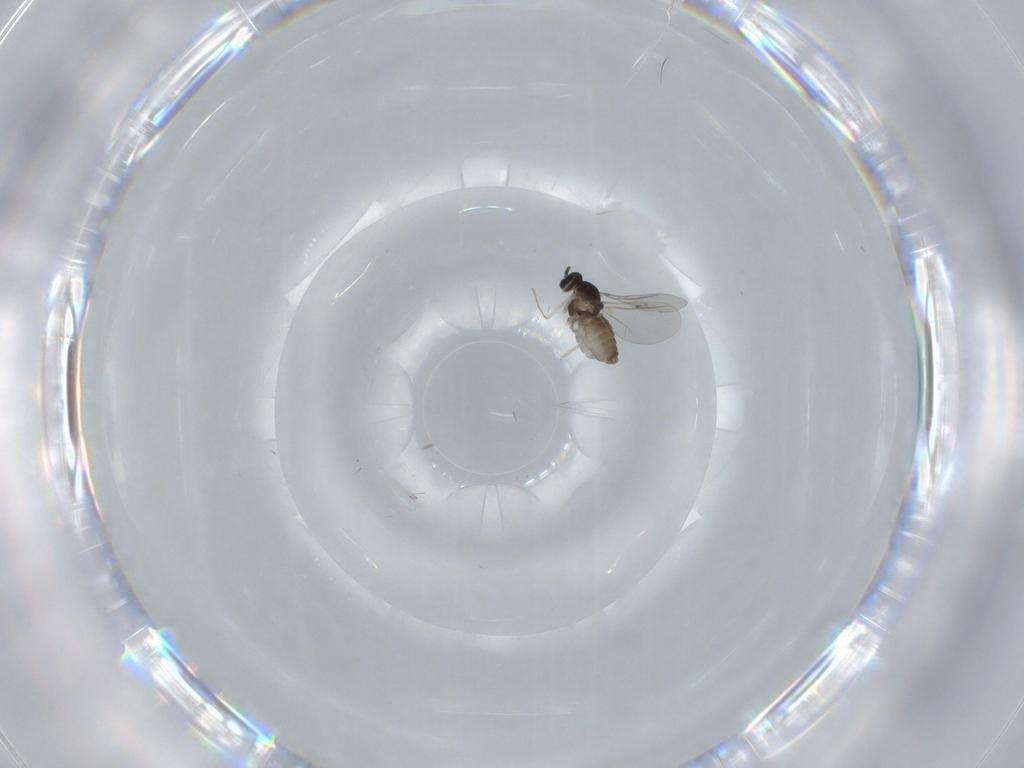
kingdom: Animalia
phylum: Arthropoda
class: Insecta
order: Diptera
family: Cecidomyiidae
